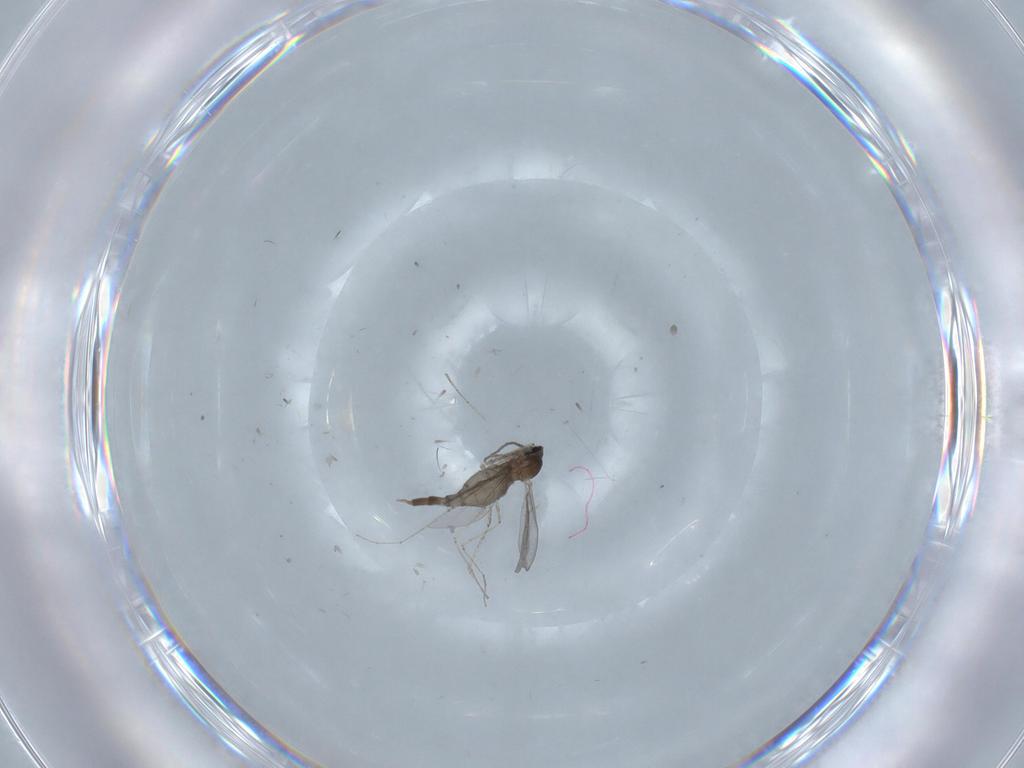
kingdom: Animalia
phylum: Arthropoda
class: Insecta
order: Diptera
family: Cecidomyiidae
